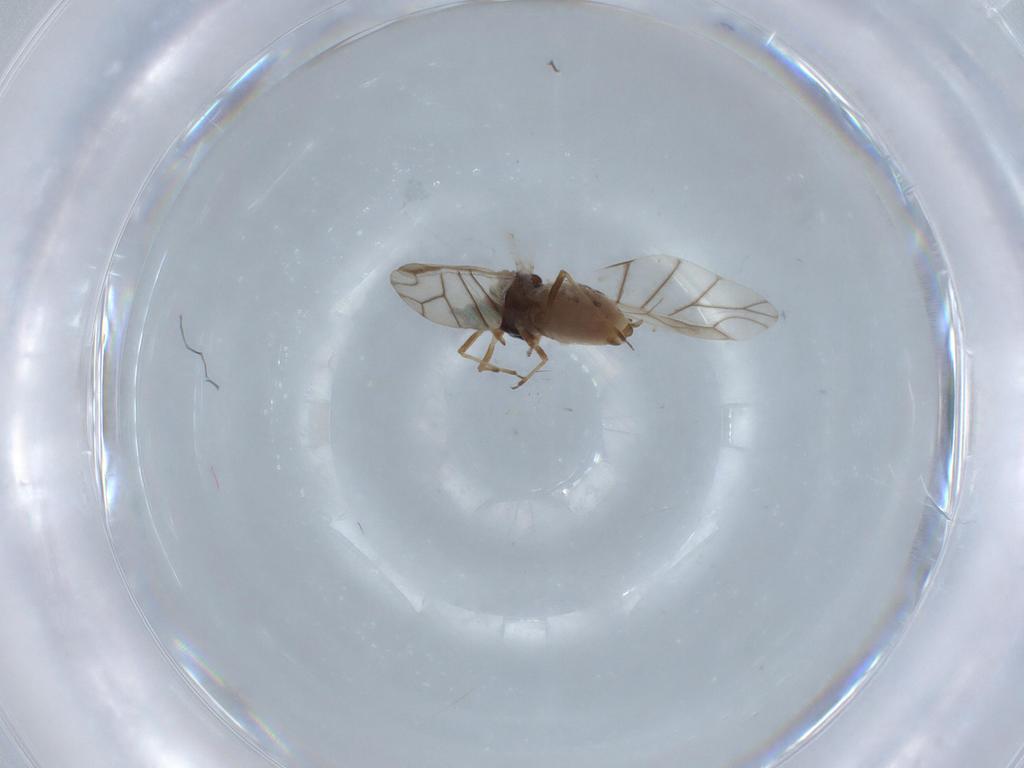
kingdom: Animalia
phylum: Arthropoda
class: Insecta
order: Hemiptera
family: Aphididae
